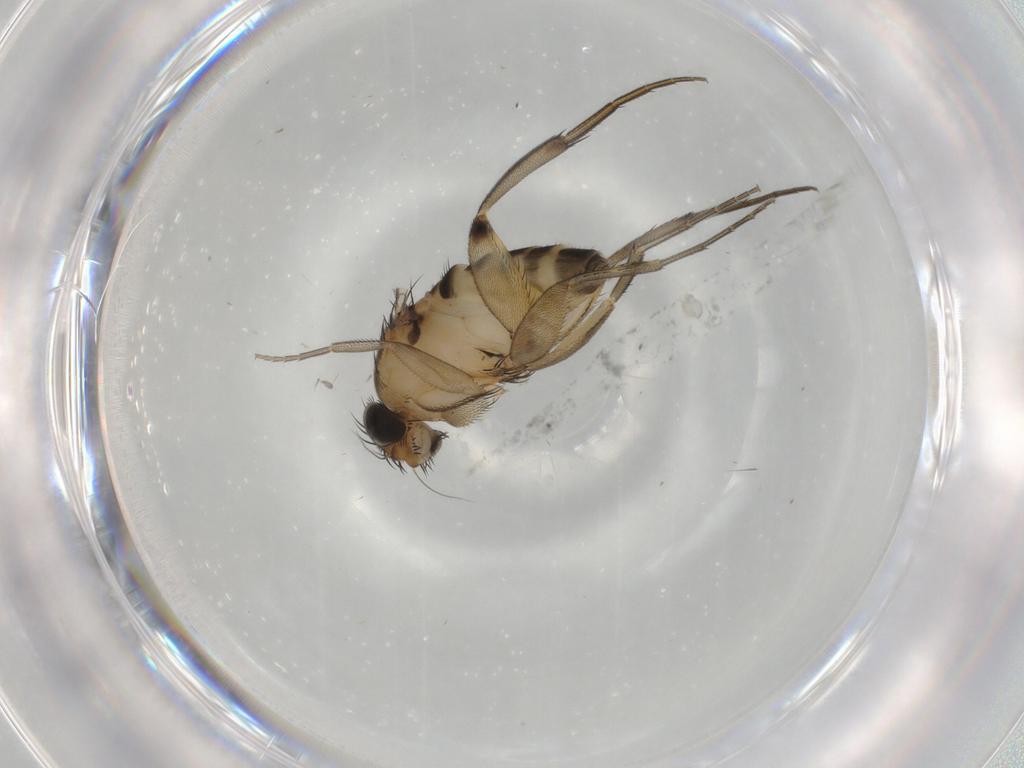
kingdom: Animalia
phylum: Arthropoda
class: Insecta
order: Diptera
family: Phoridae
